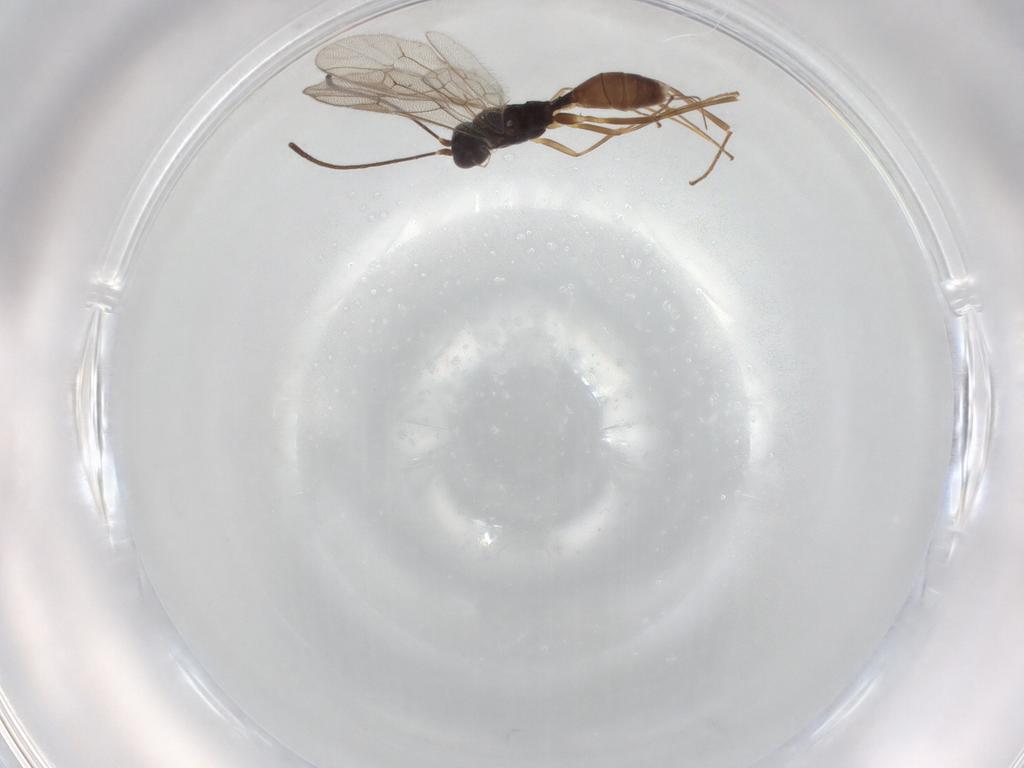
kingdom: Animalia
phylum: Arthropoda
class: Insecta
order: Hymenoptera
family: Ichneumonidae
